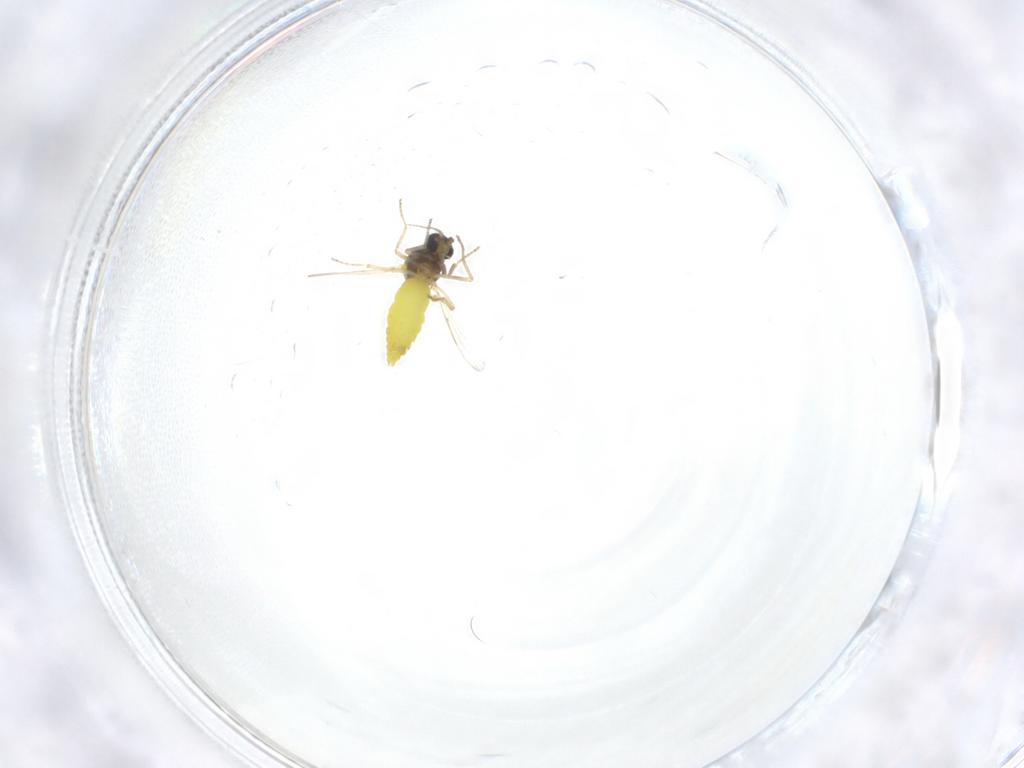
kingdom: Animalia
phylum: Arthropoda
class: Insecta
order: Diptera
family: Ceratopogonidae
